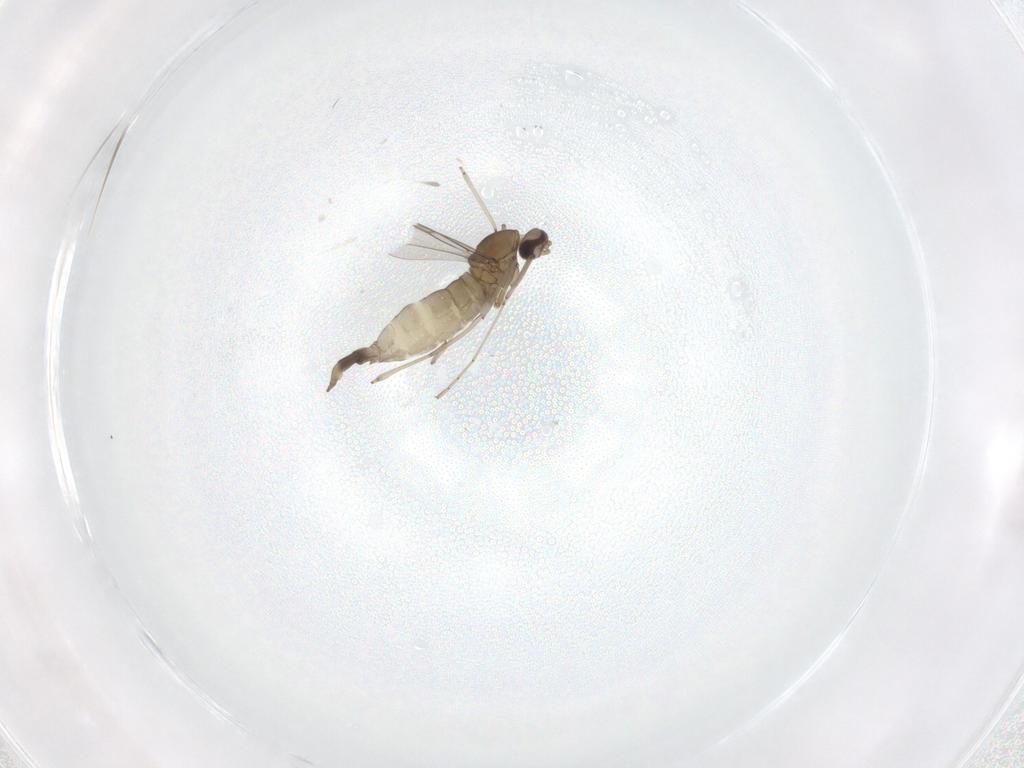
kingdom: Animalia
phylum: Arthropoda
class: Insecta
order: Diptera
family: Cecidomyiidae
